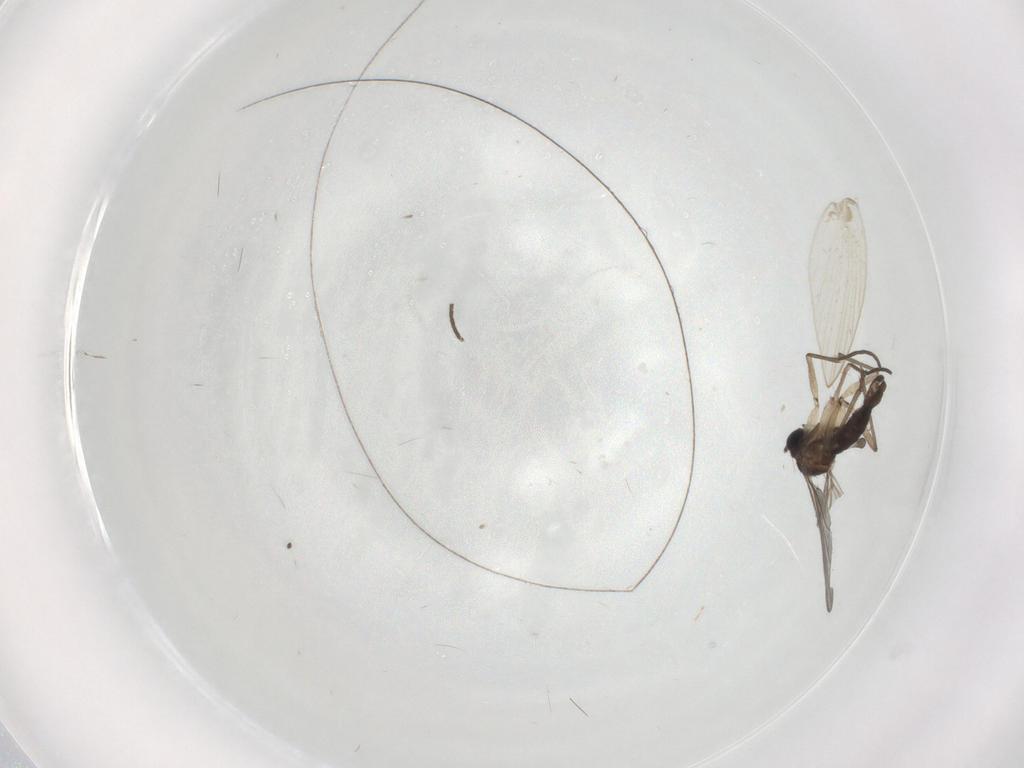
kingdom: Animalia
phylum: Arthropoda
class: Insecta
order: Diptera
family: Sciaridae
